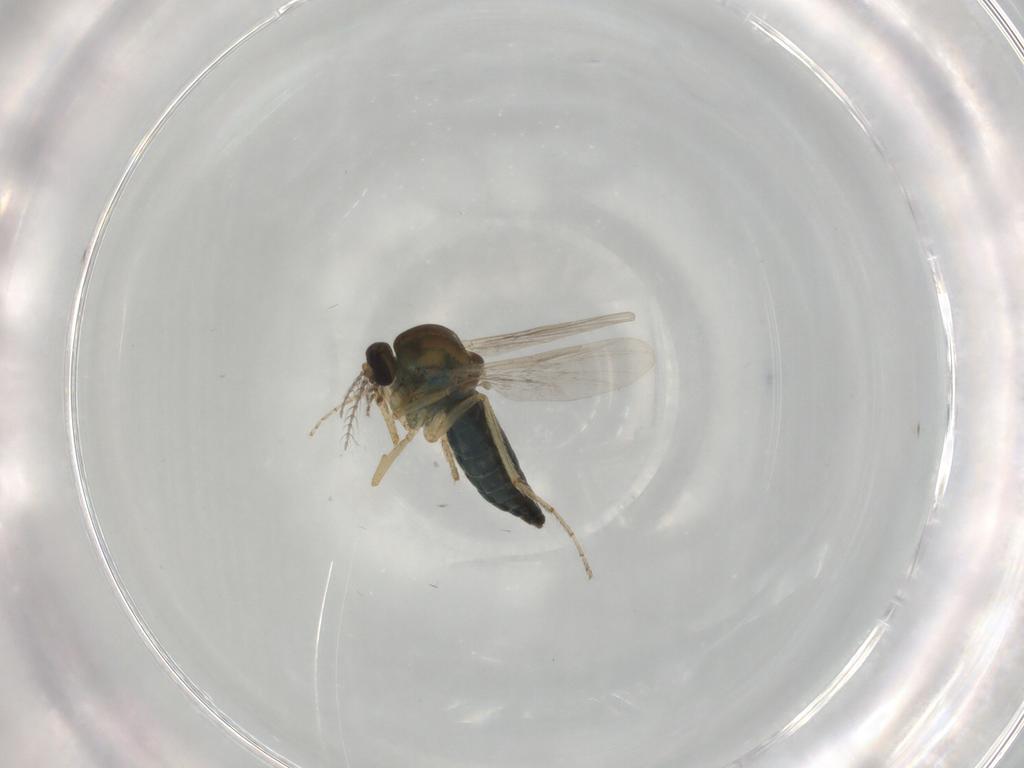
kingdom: Animalia
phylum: Arthropoda
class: Insecta
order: Diptera
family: Ceratopogonidae
